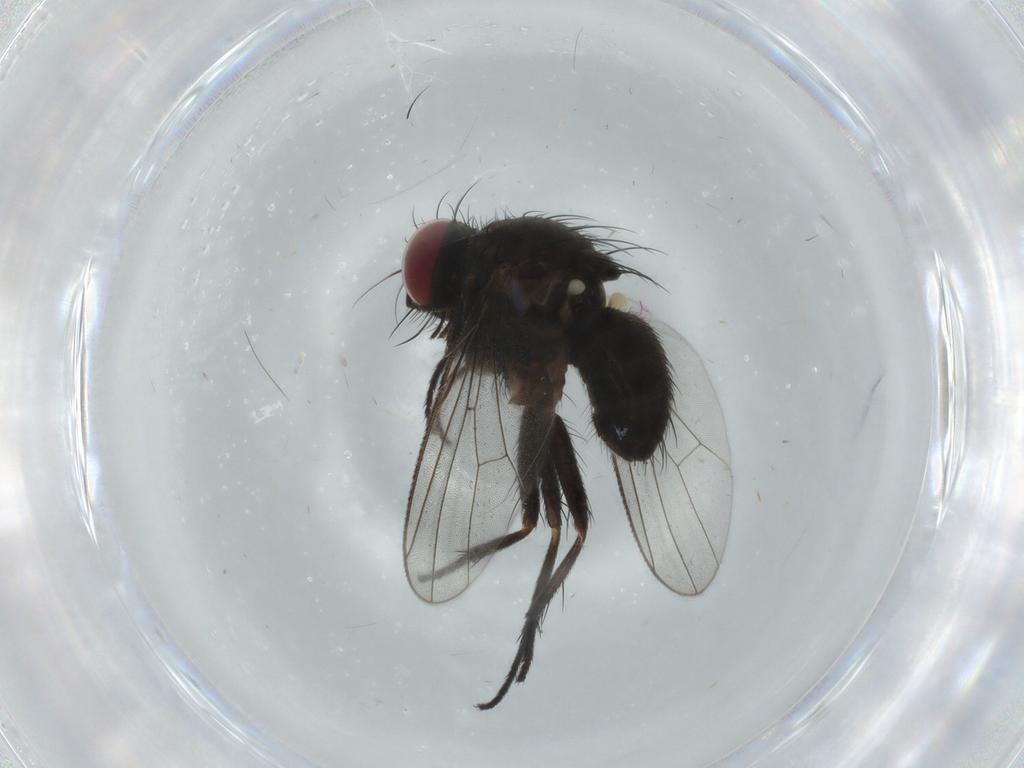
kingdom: Animalia
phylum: Arthropoda
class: Insecta
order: Diptera
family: Muscidae
